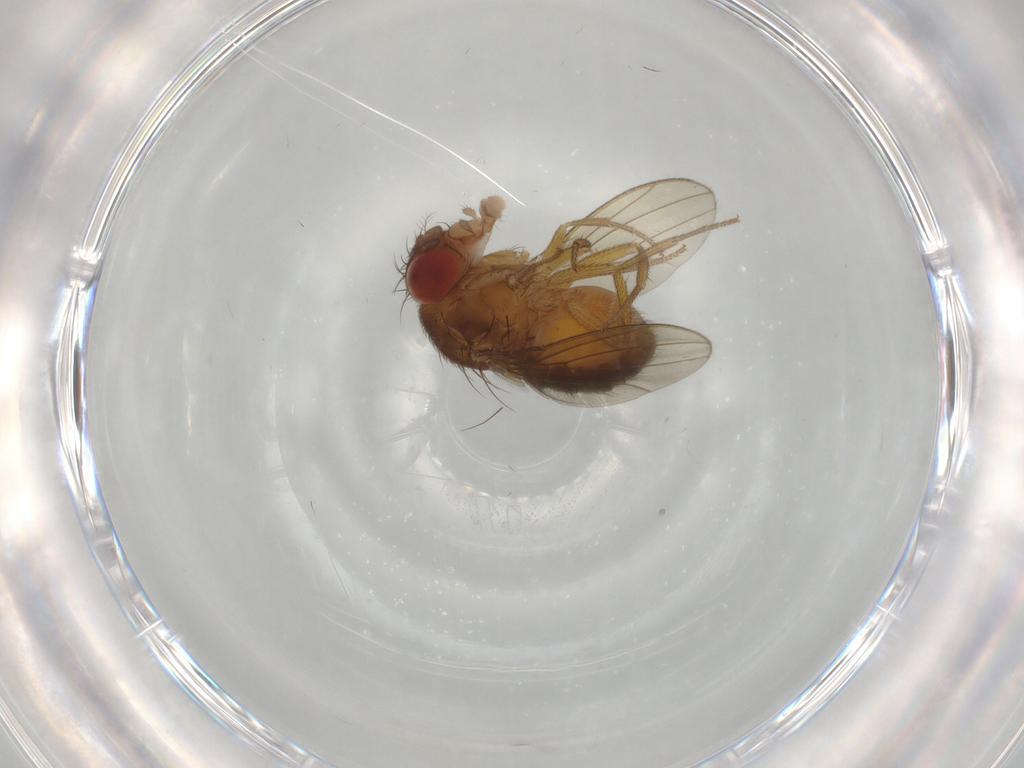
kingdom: Animalia
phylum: Arthropoda
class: Insecta
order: Diptera
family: Drosophilidae
